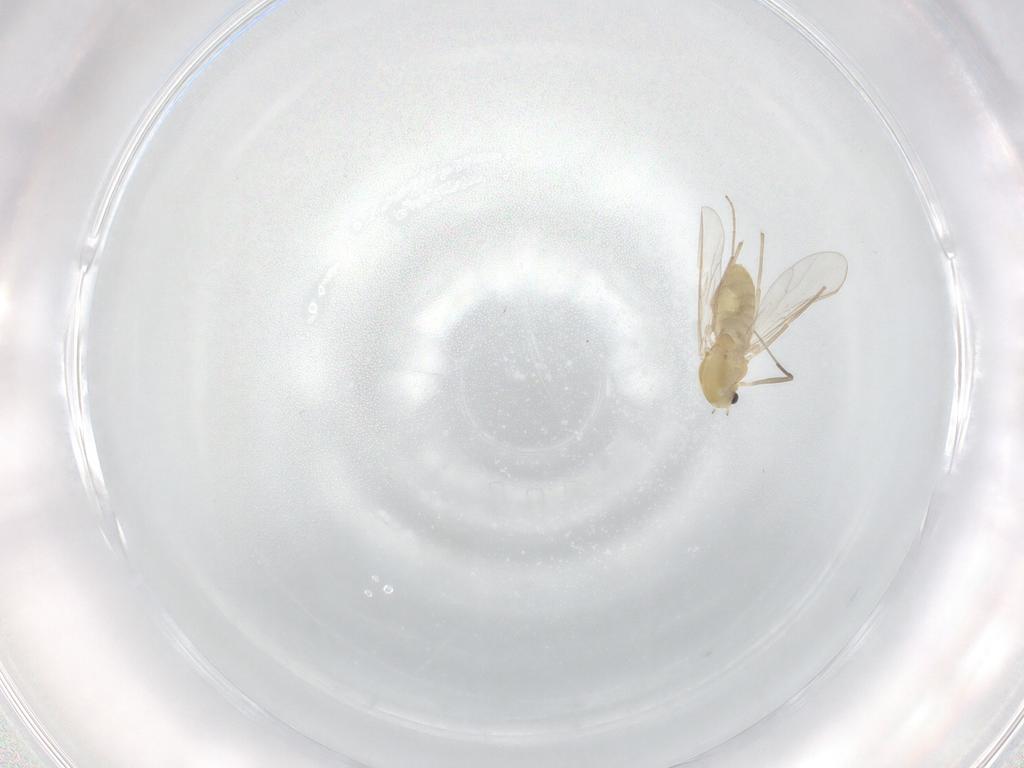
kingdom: Animalia
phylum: Arthropoda
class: Insecta
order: Diptera
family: Chironomidae
